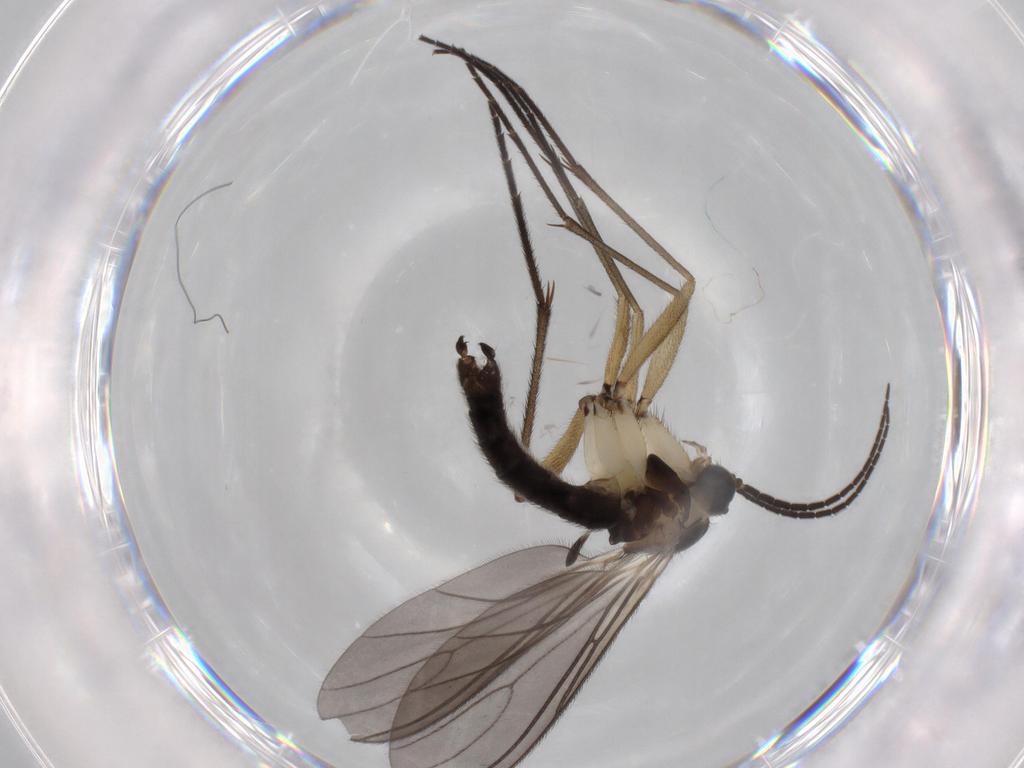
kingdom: Animalia
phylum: Arthropoda
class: Insecta
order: Diptera
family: Sciaridae
